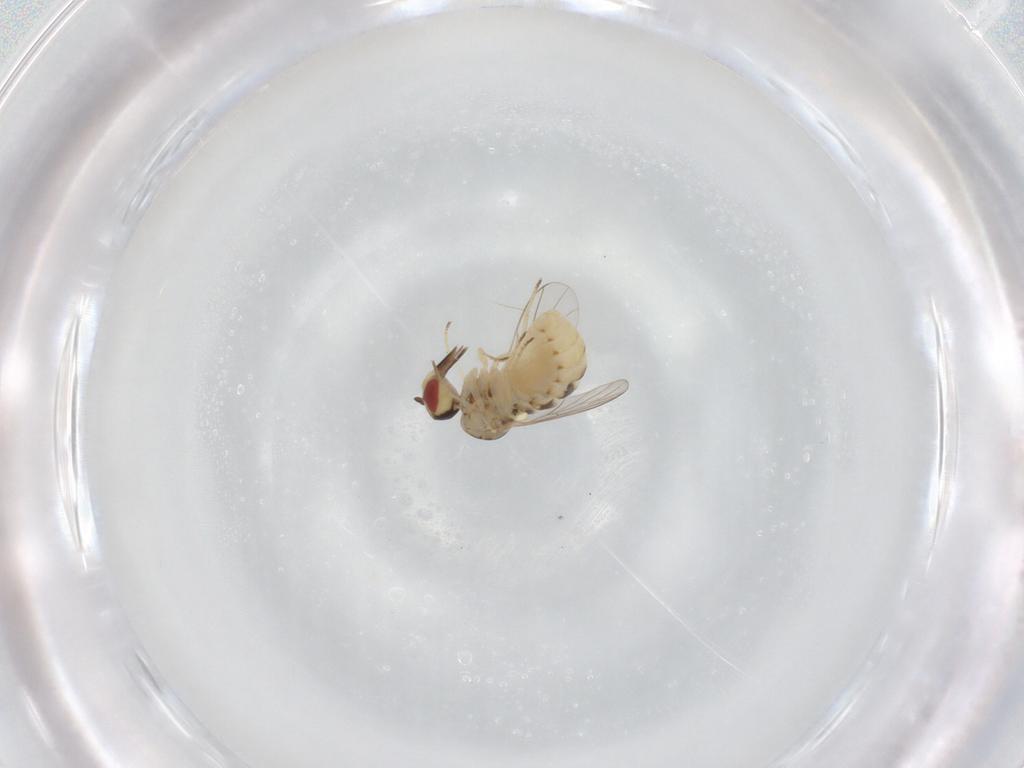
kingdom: Animalia
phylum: Arthropoda
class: Insecta
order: Diptera
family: Bombyliidae
